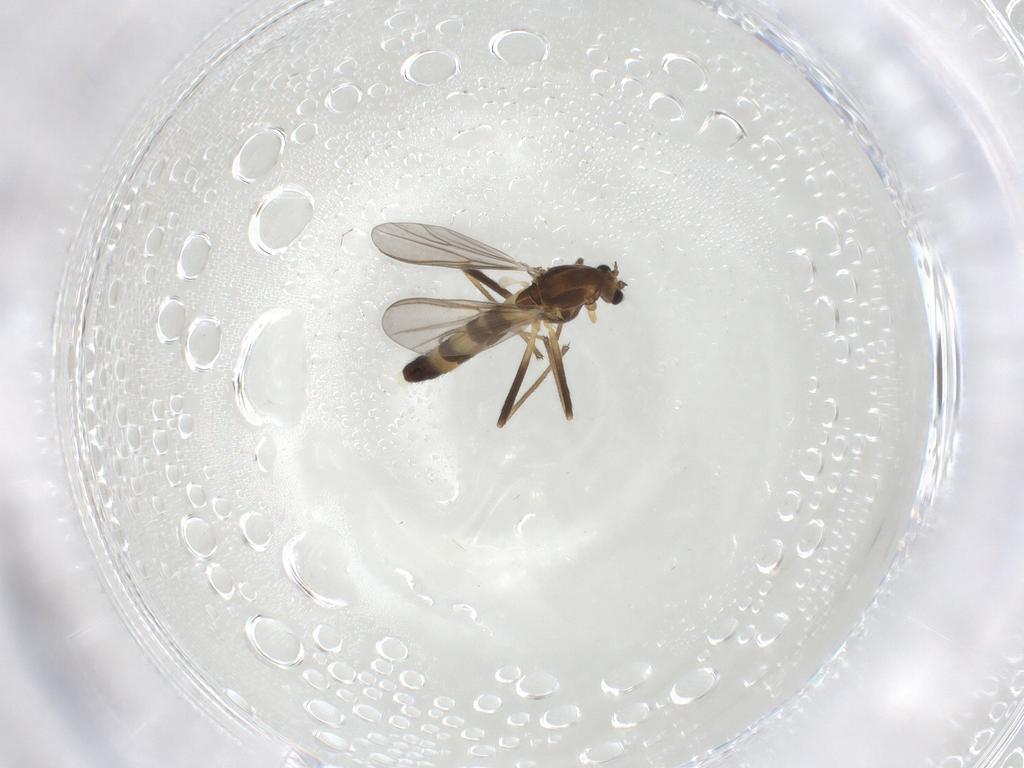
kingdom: Animalia
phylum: Arthropoda
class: Insecta
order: Diptera
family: Chironomidae
